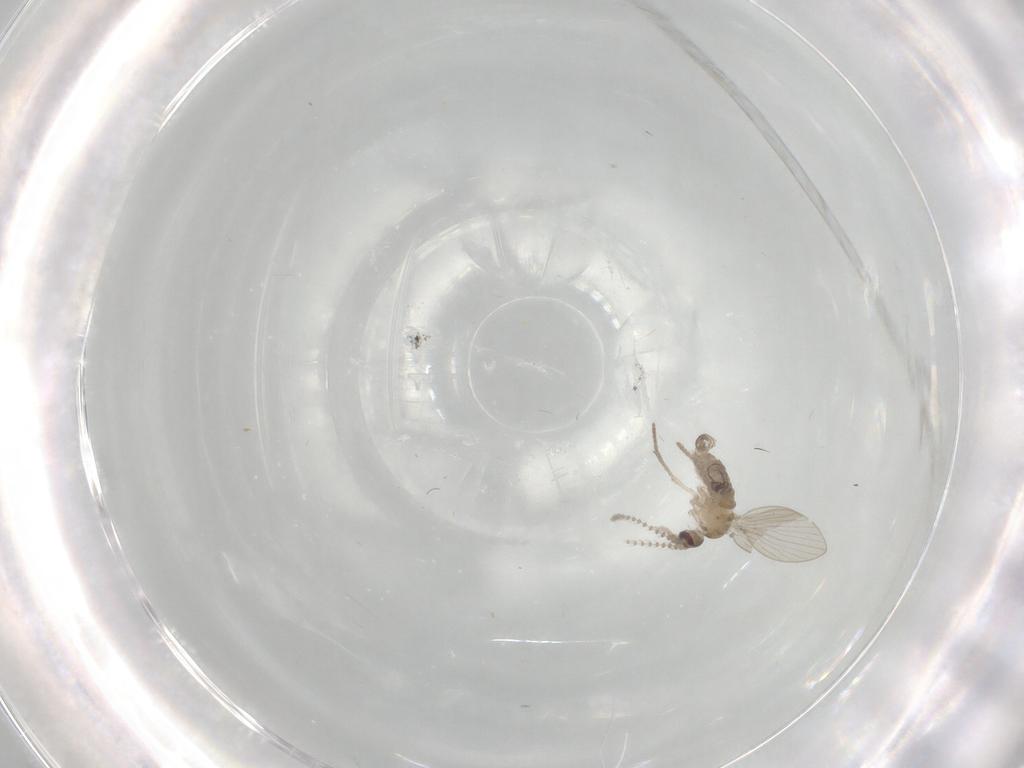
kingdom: Animalia
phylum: Arthropoda
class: Insecta
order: Diptera
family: Psychodidae
